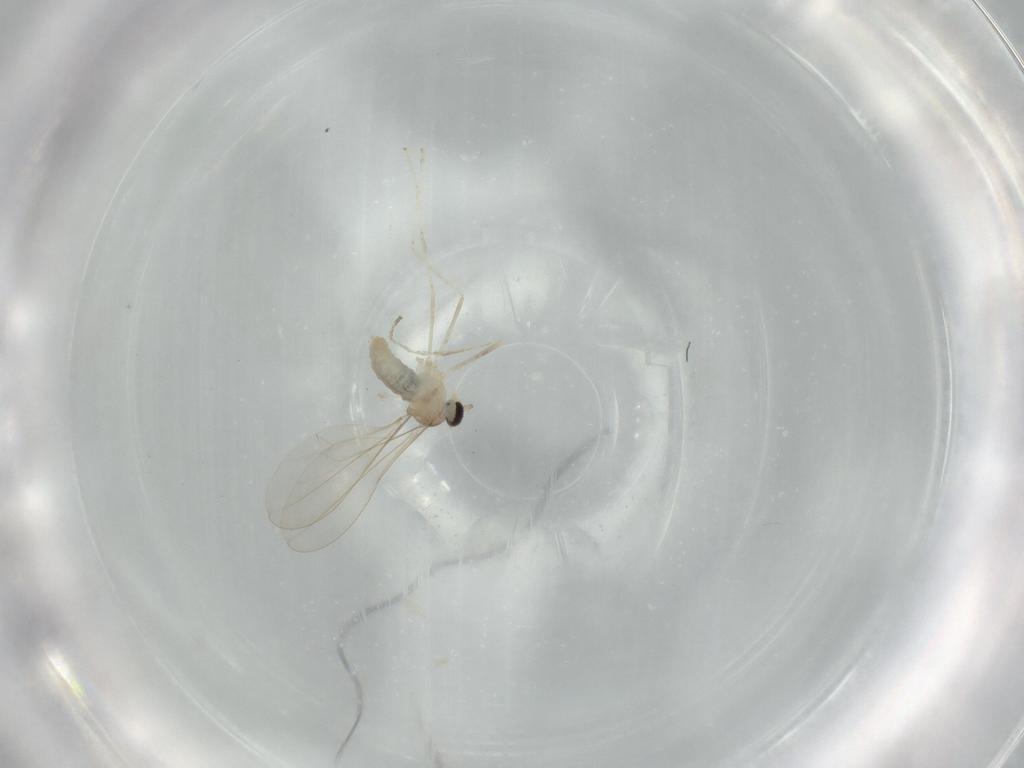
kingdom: Animalia
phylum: Arthropoda
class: Insecta
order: Diptera
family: Cecidomyiidae
